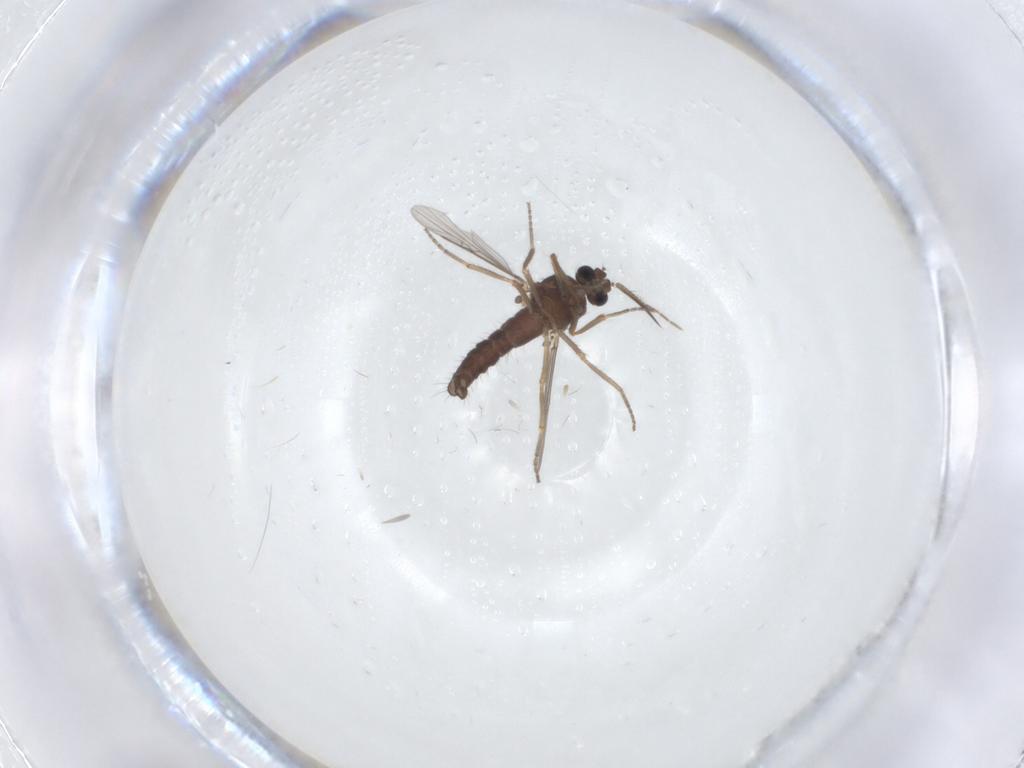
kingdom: Animalia
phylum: Arthropoda
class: Insecta
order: Diptera
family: Ceratopogonidae
